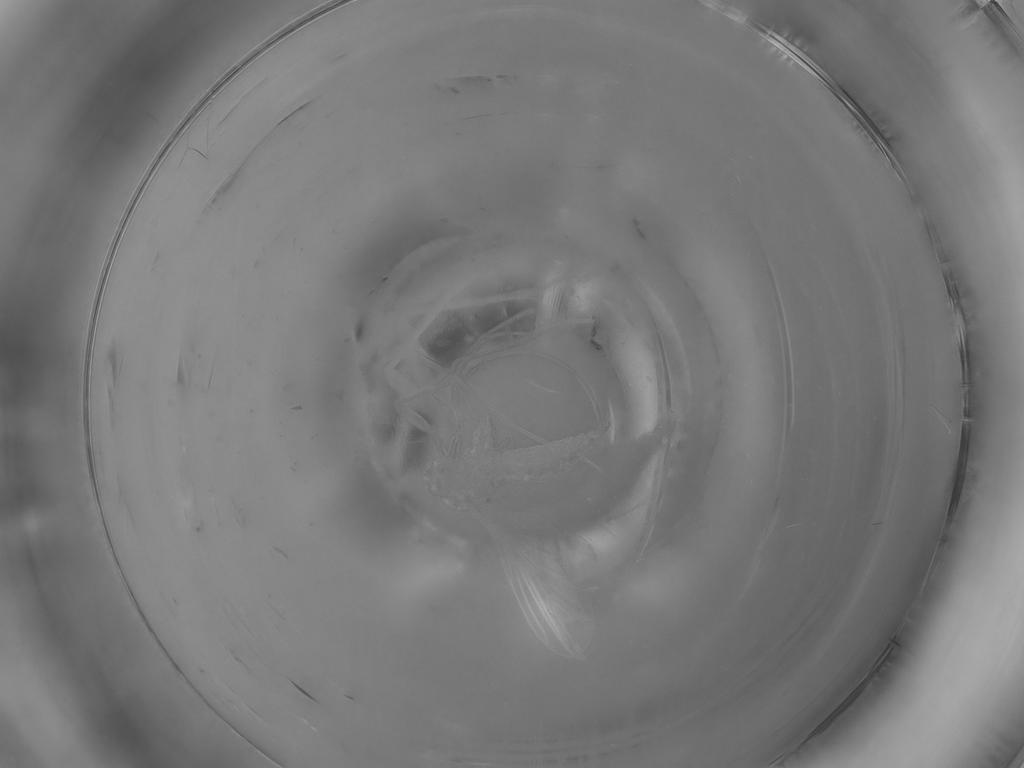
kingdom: Animalia
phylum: Arthropoda
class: Insecta
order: Diptera
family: Sciaridae
